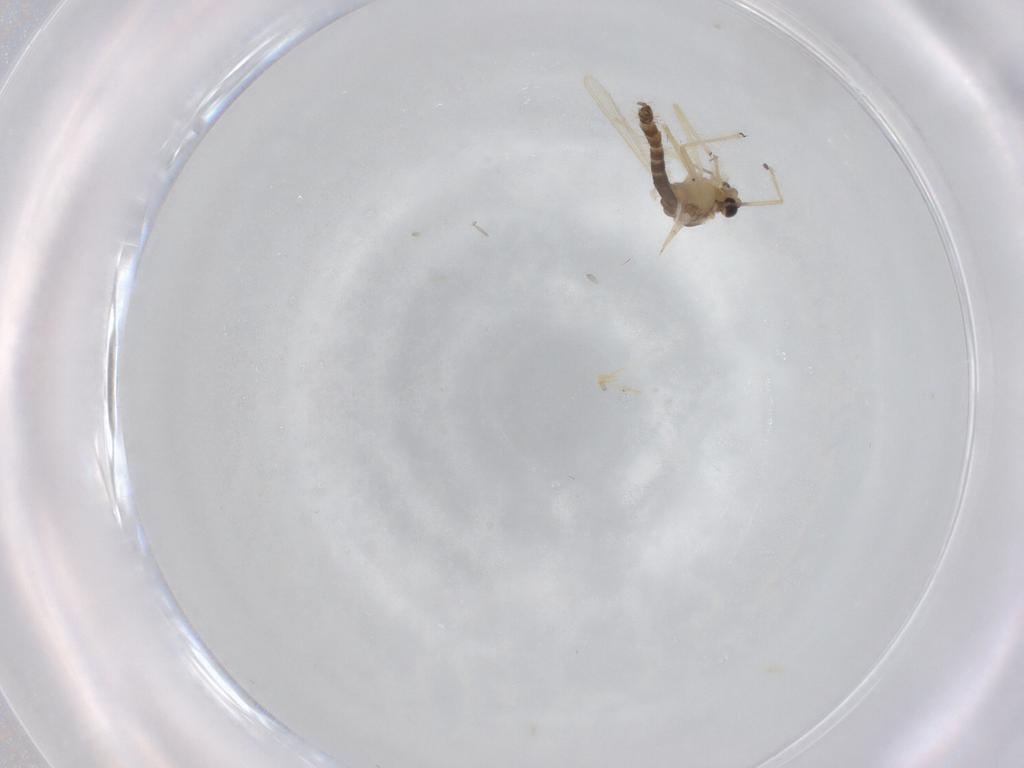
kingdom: Animalia
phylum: Arthropoda
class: Insecta
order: Diptera
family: Chironomidae
